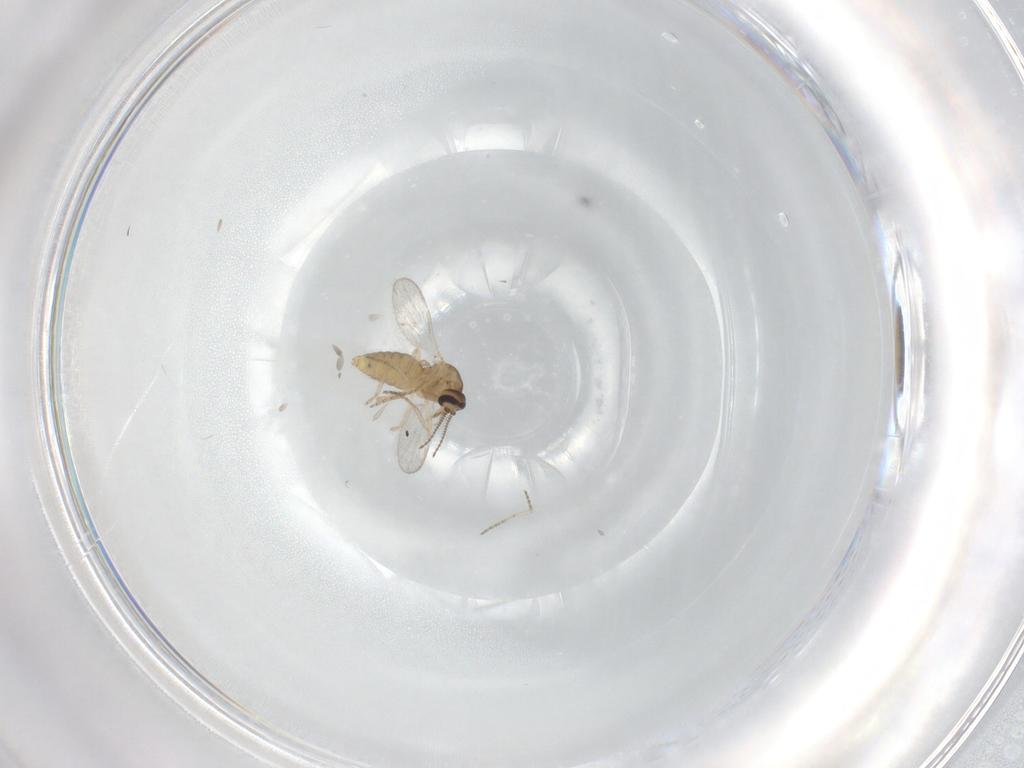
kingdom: Animalia
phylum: Arthropoda
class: Insecta
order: Diptera
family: Ceratopogonidae
